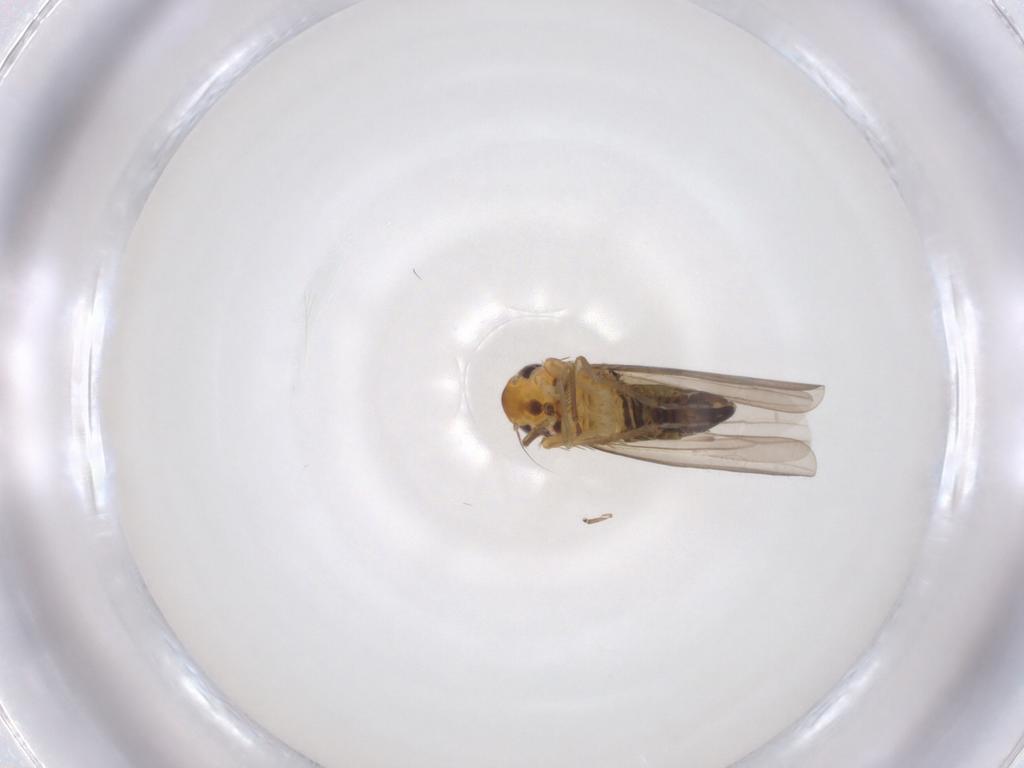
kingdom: Animalia
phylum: Arthropoda
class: Insecta
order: Hemiptera
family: Cicadellidae
